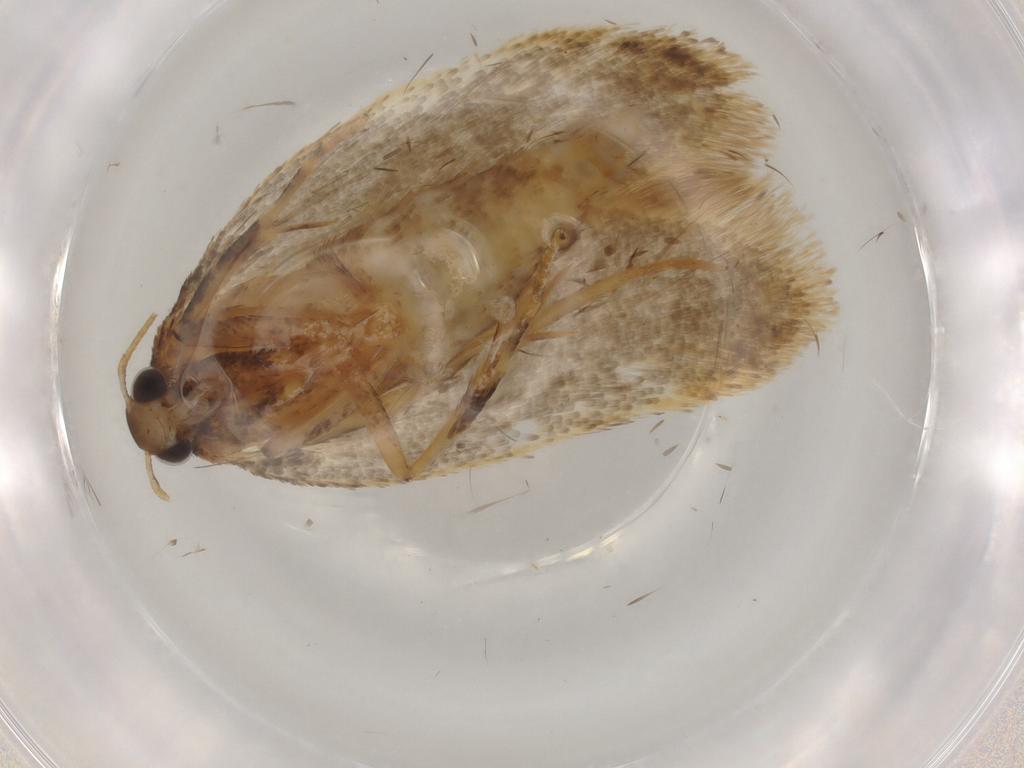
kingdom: Animalia
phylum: Arthropoda
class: Insecta
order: Lepidoptera
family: Gelechiidae
